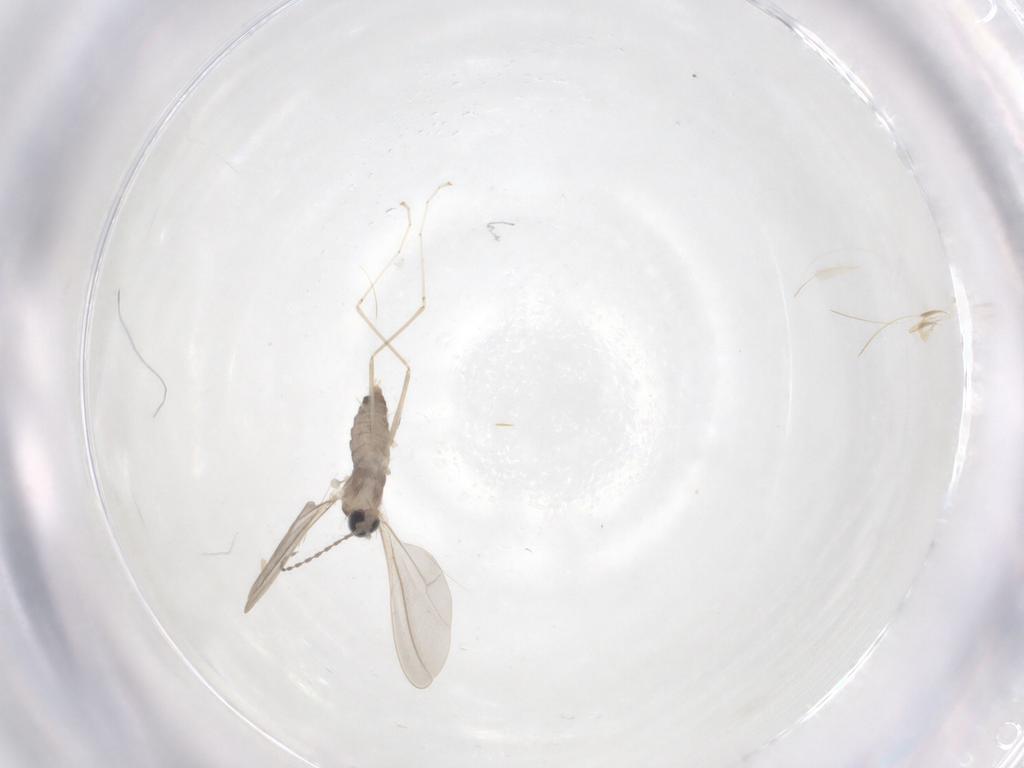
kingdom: Animalia
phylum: Arthropoda
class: Insecta
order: Diptera
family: Cecidomyiidae
